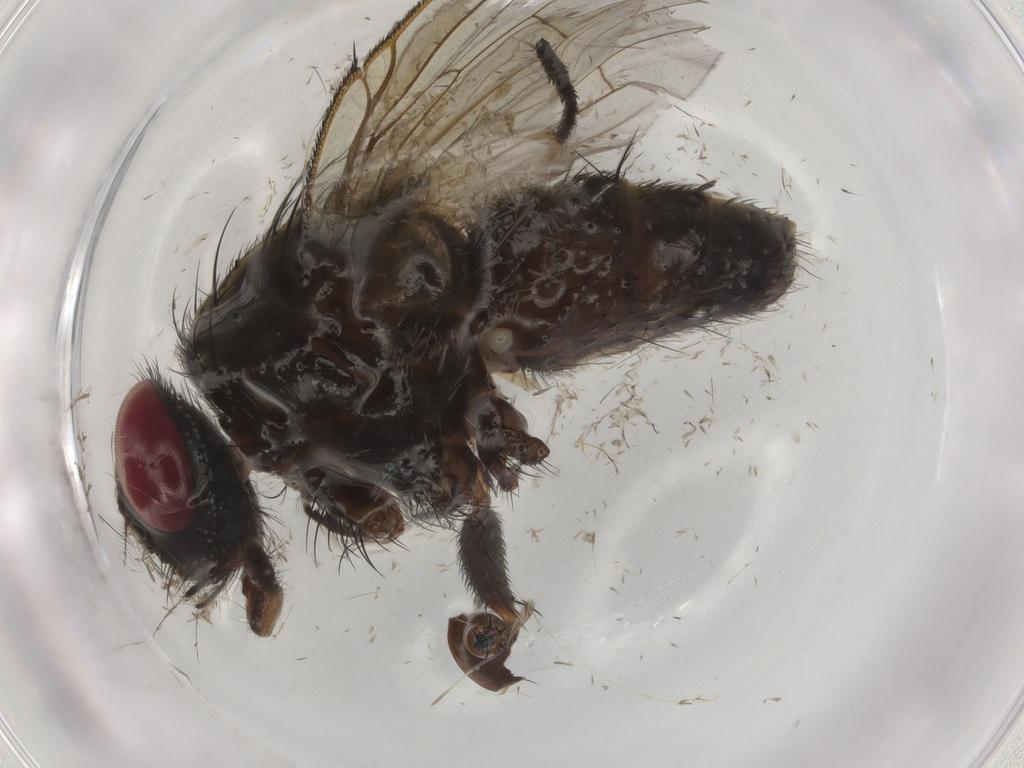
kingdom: Animalia
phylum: Arthropoda
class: Insecta
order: Diptera
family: Muscidae
